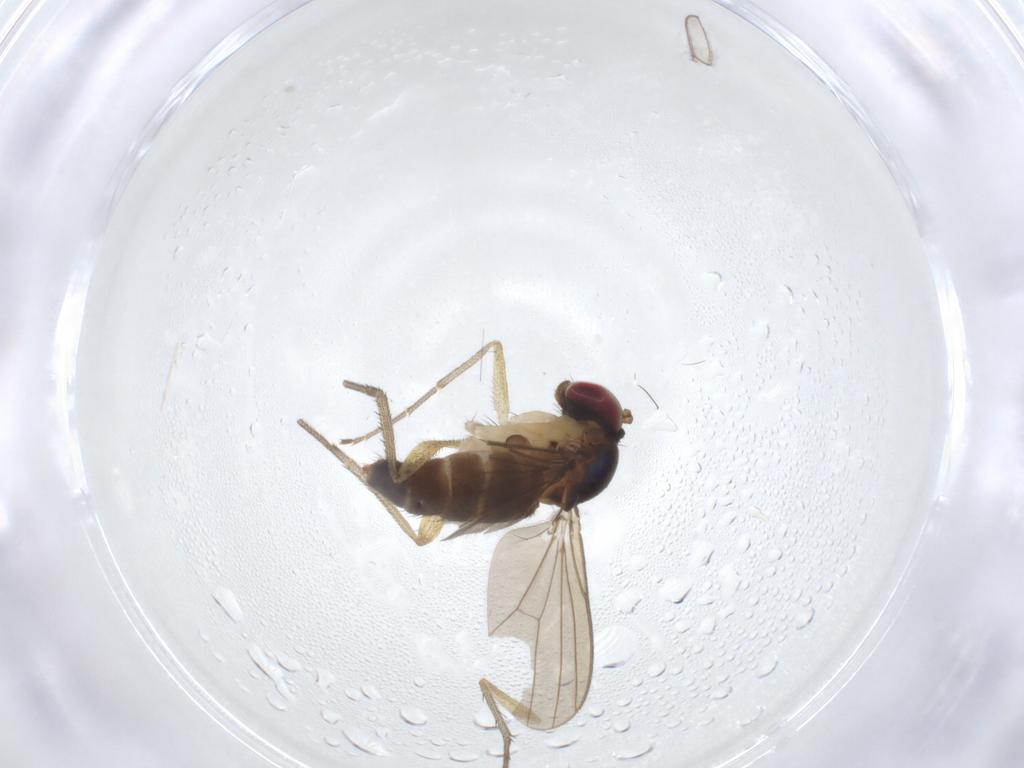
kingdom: Animalia
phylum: Arthropoda
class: Insecta
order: Diptera
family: Dolichopodidae
